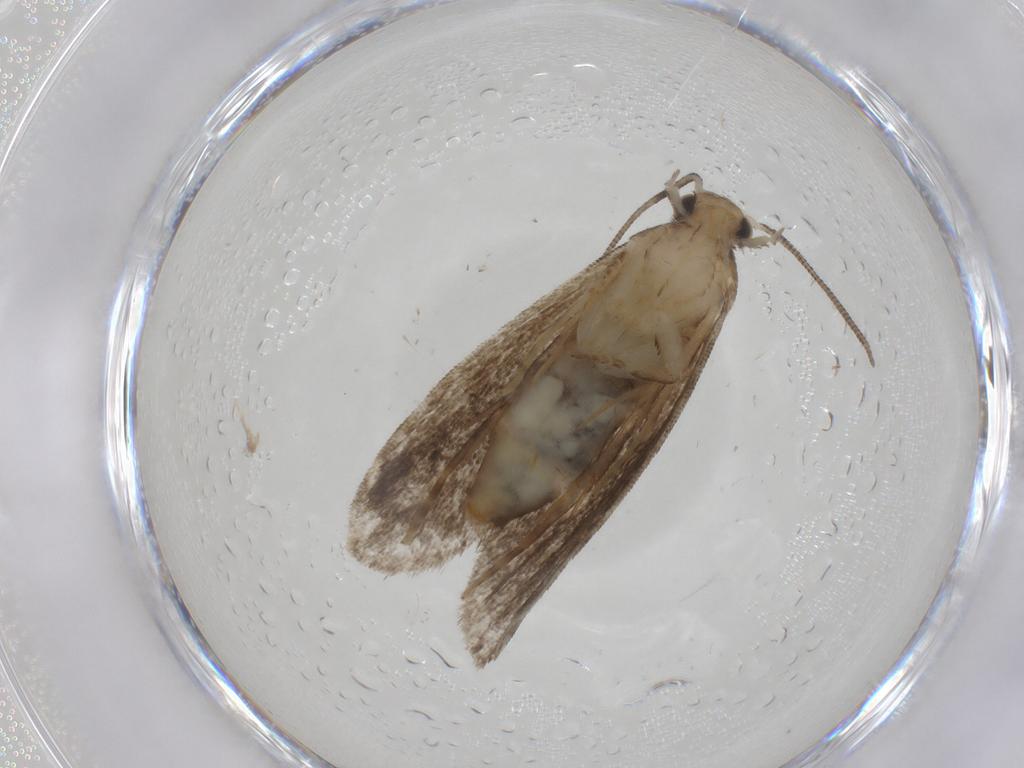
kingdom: Animalia
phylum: Arthropoda
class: Insecta
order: Lepidoptera
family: Dryadaulidae
